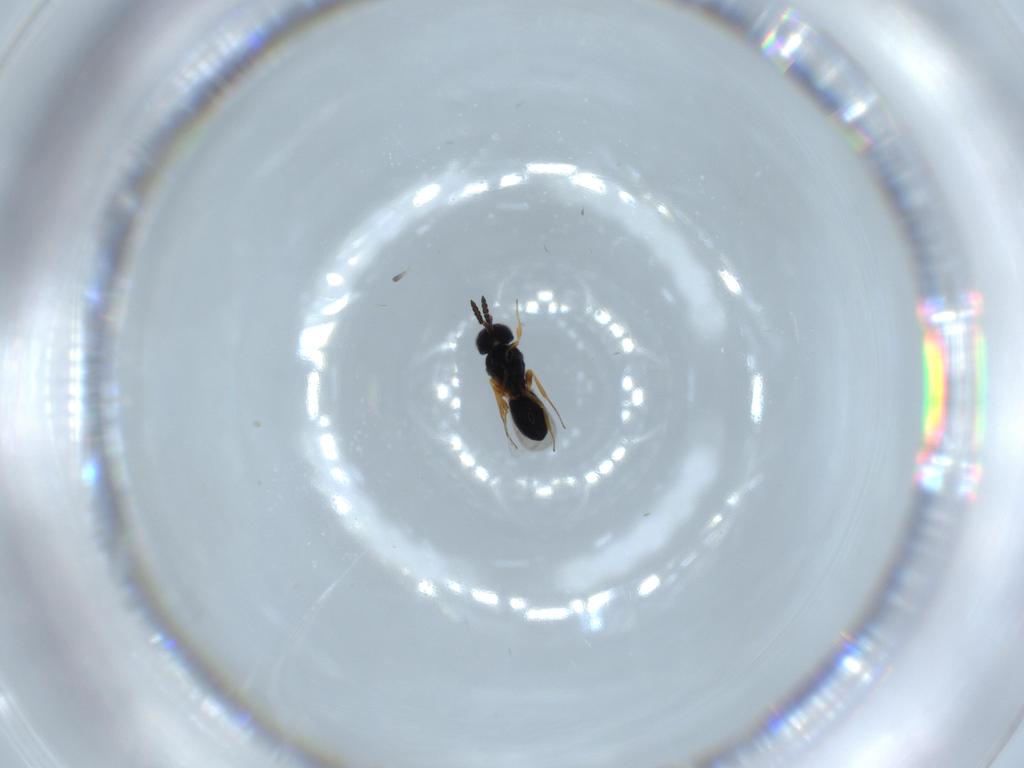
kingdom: Animalia
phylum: Arthropoda
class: Insecta
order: Hymenoptera
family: Scelionidae
